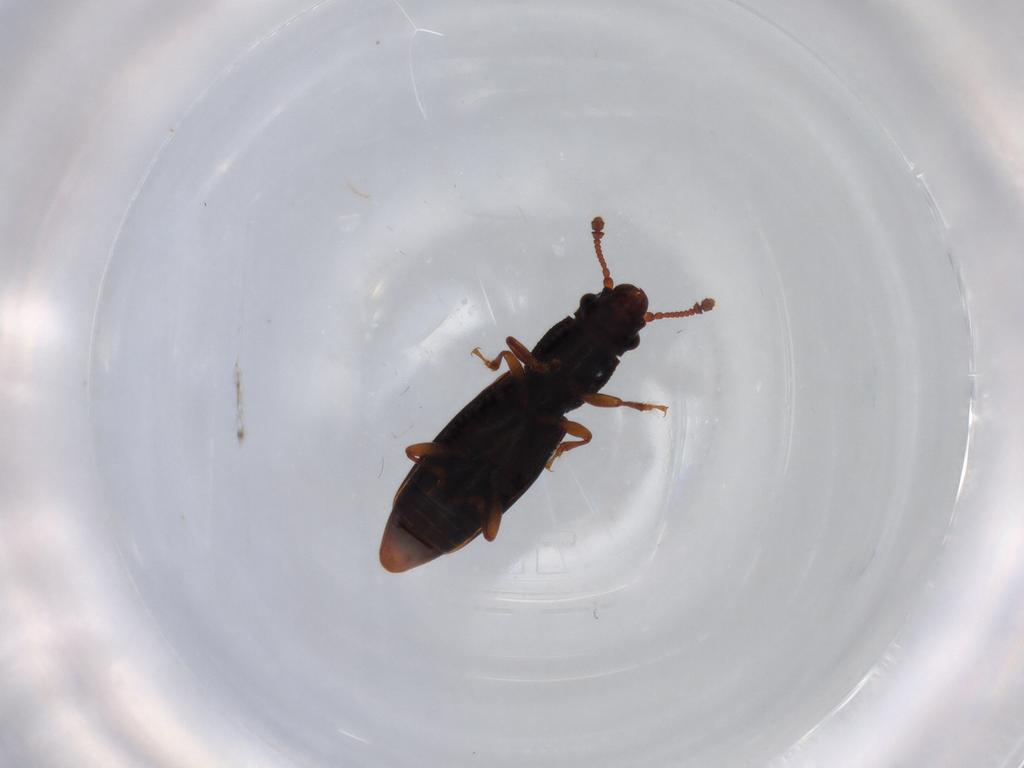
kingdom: Animalia
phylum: Arthropoda
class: Insecta
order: Coleoptera
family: Monotomidae
